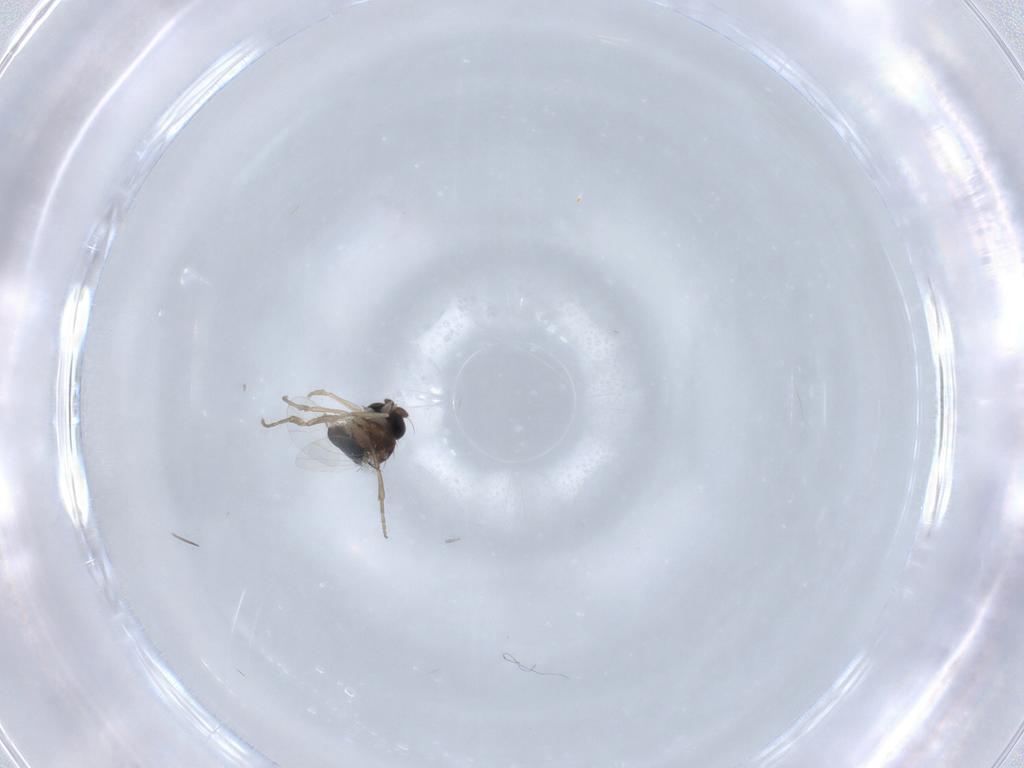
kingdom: Animalia
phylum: Arthropoda
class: Insecta
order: Diptera
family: Phoridae
